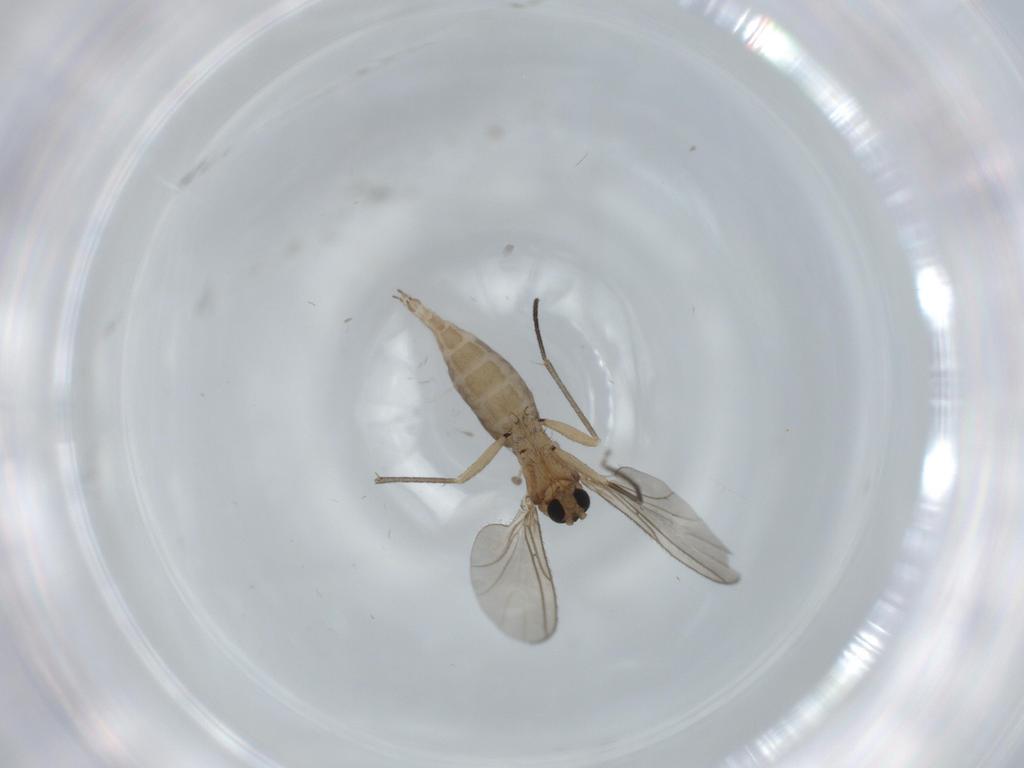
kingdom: Animalia
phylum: Arthropoda
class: Insecta
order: Diptera
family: Sciaridae
